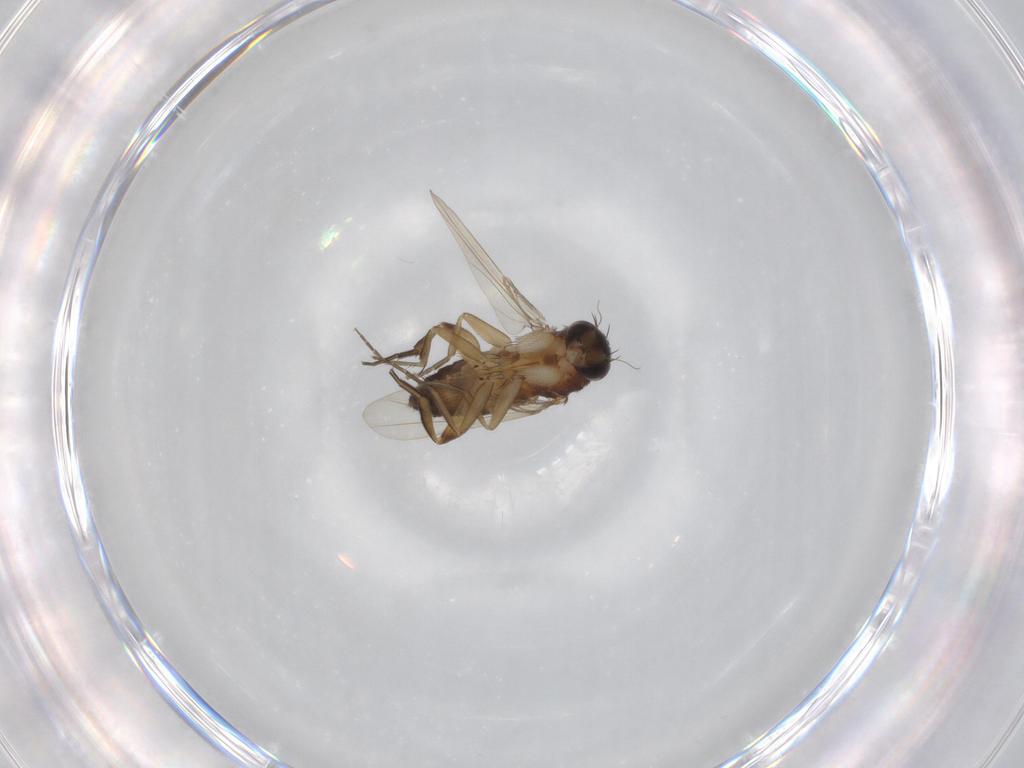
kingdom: Animalia
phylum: Arthropoda
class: Insecta
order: Diptera
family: Phoridae
